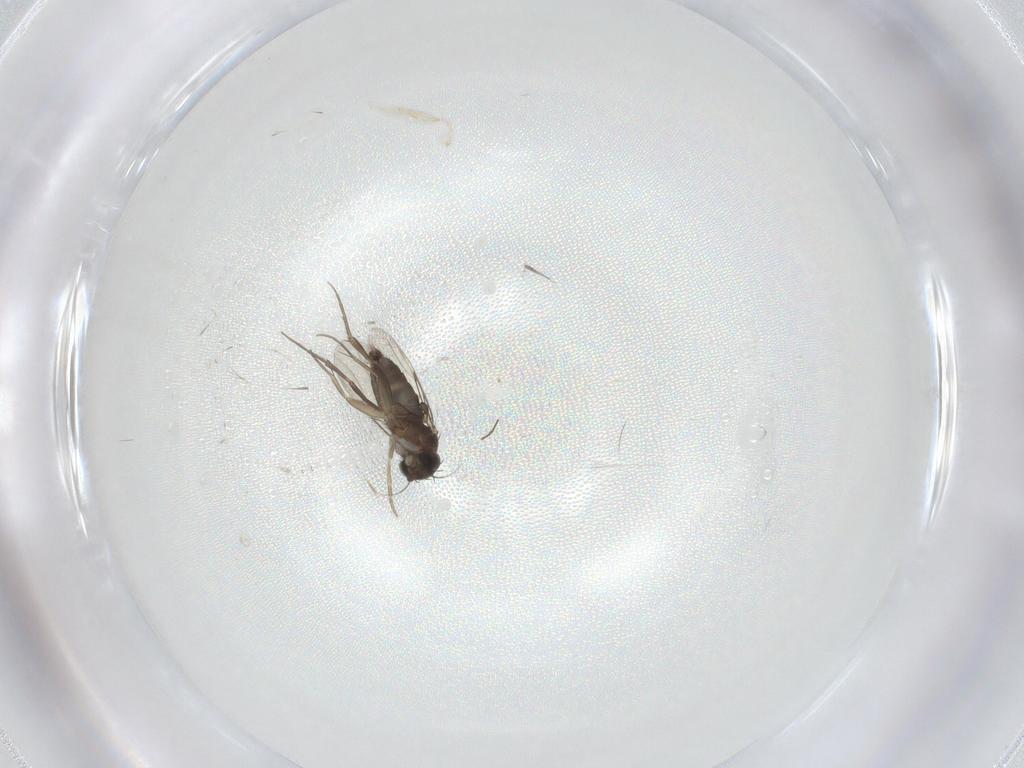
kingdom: Animalia
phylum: Arthropoda
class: Insecta
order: Diptera
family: Phoridae
